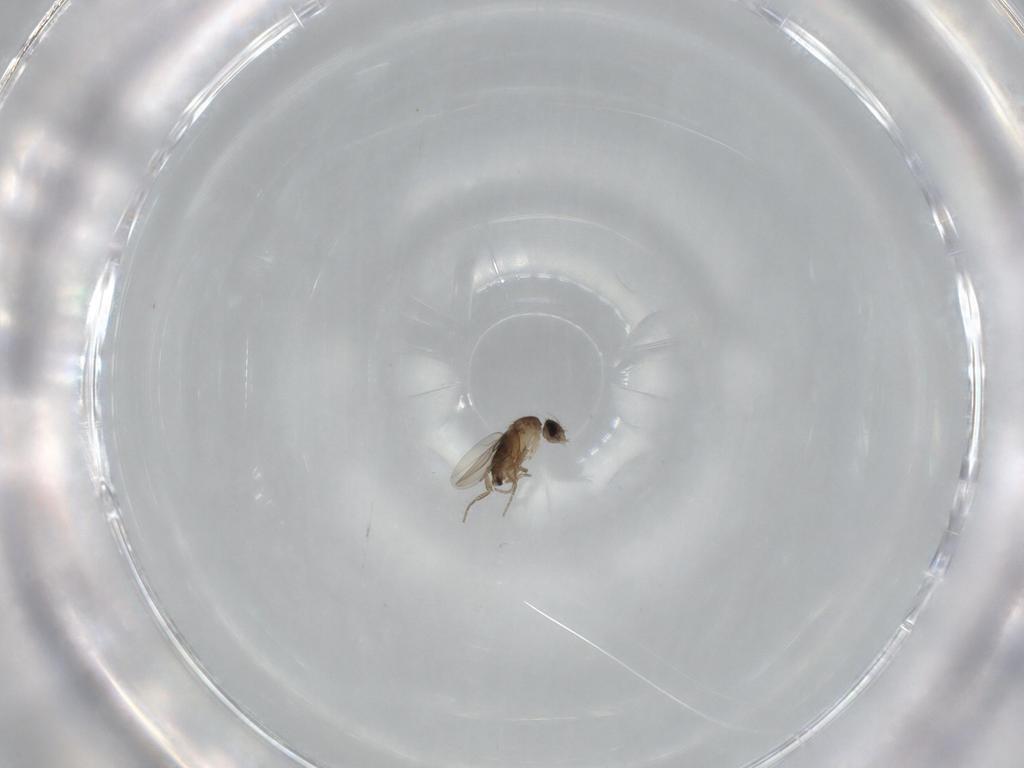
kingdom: Animalia
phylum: Arthropoda
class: Insecta
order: Diptera
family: Phoridae
